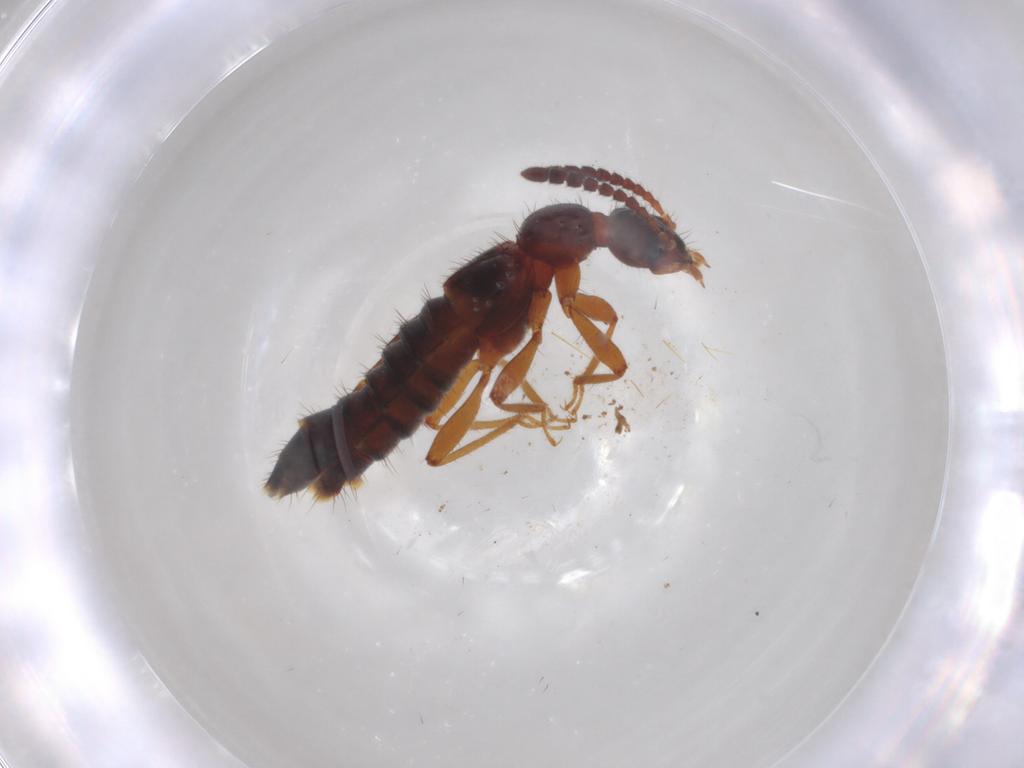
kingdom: Animalia
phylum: Arthropoda
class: Insecta
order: Coleoptera
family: Staphylinidae
